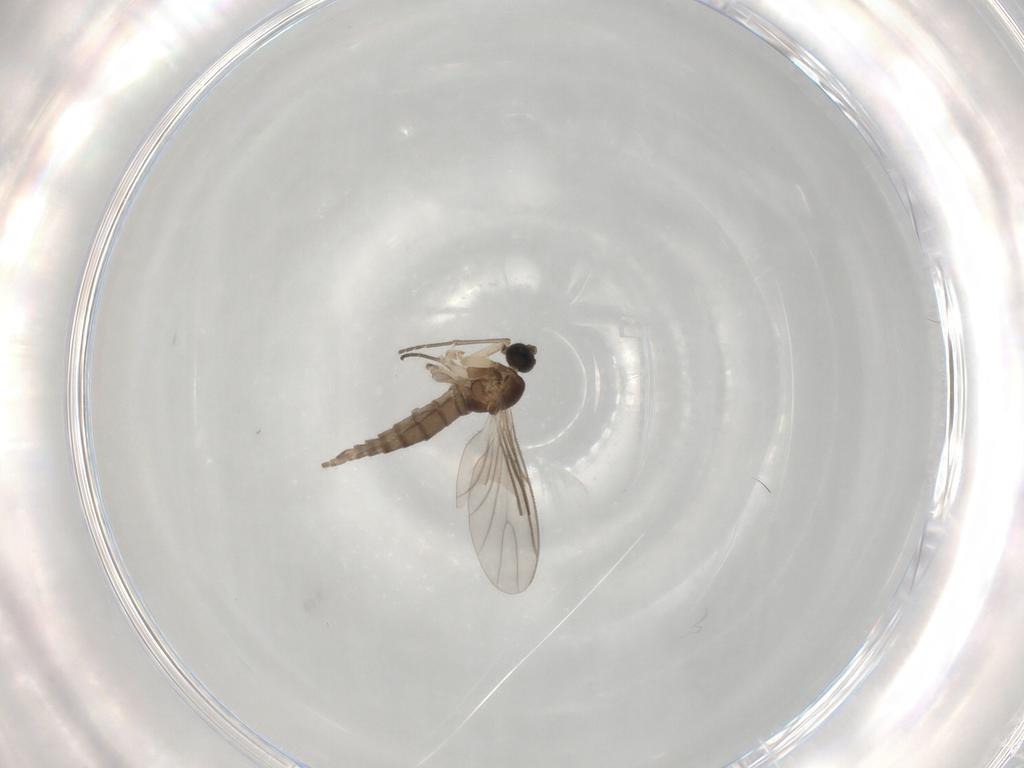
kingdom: Animalia
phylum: Arthropoda
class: Insecta
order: Diptera
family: Sciaridae
